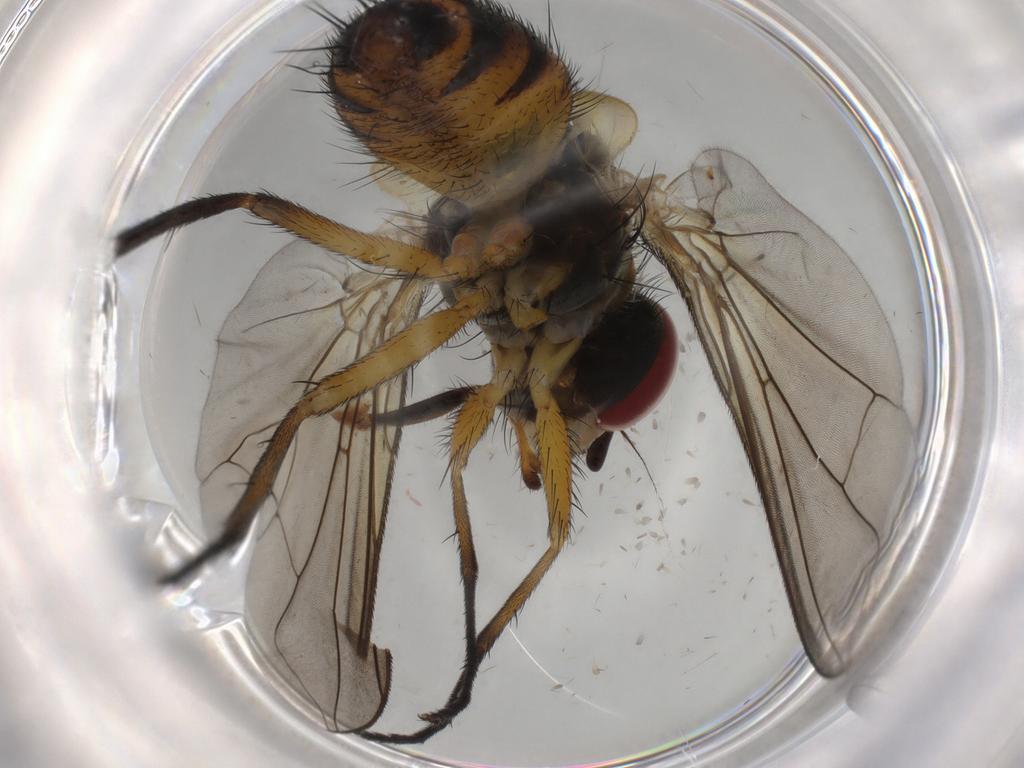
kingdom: Animalia
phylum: Arthropoda
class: Insecta
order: Diptera
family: Tachinidae
